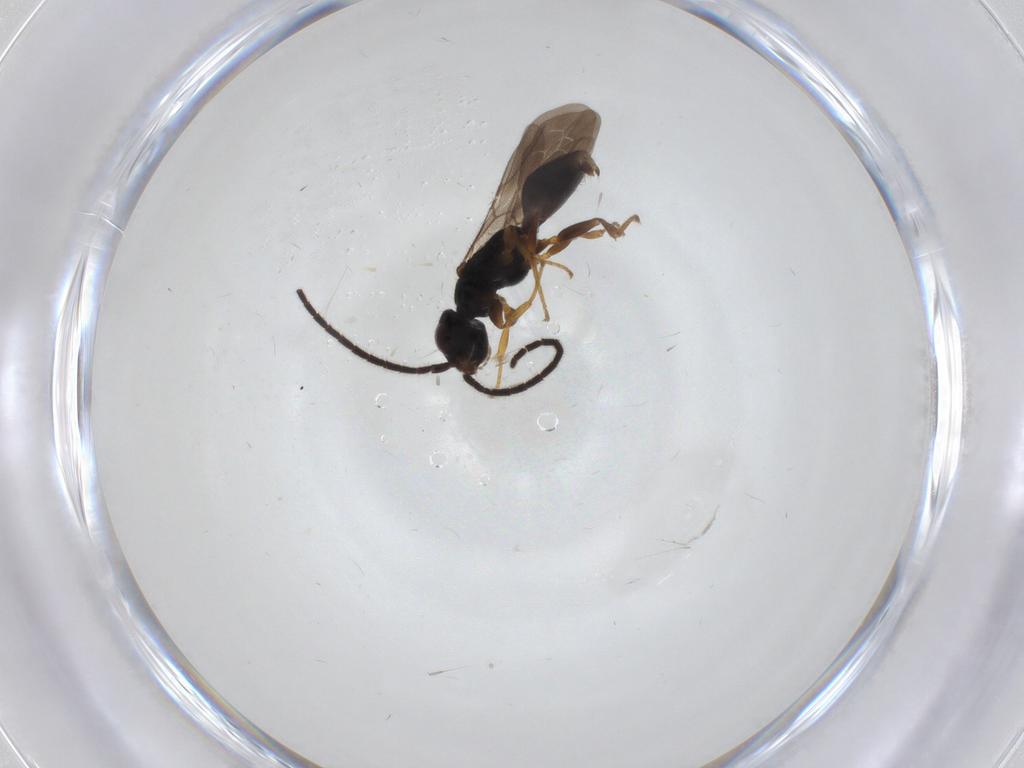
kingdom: Animalia
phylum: Arthropoda
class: Insecta
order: Hymenoptera
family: Bethylidae
